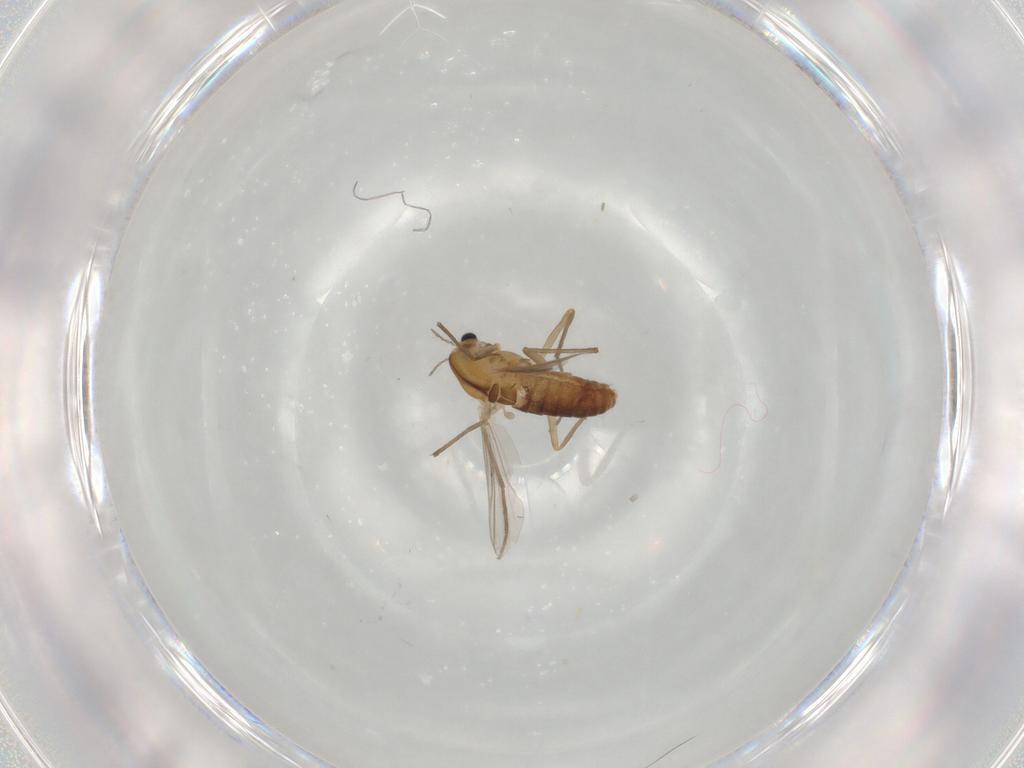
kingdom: Animalia
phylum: Arthropoda
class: Insecta
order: Diptera
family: Chironomidae
